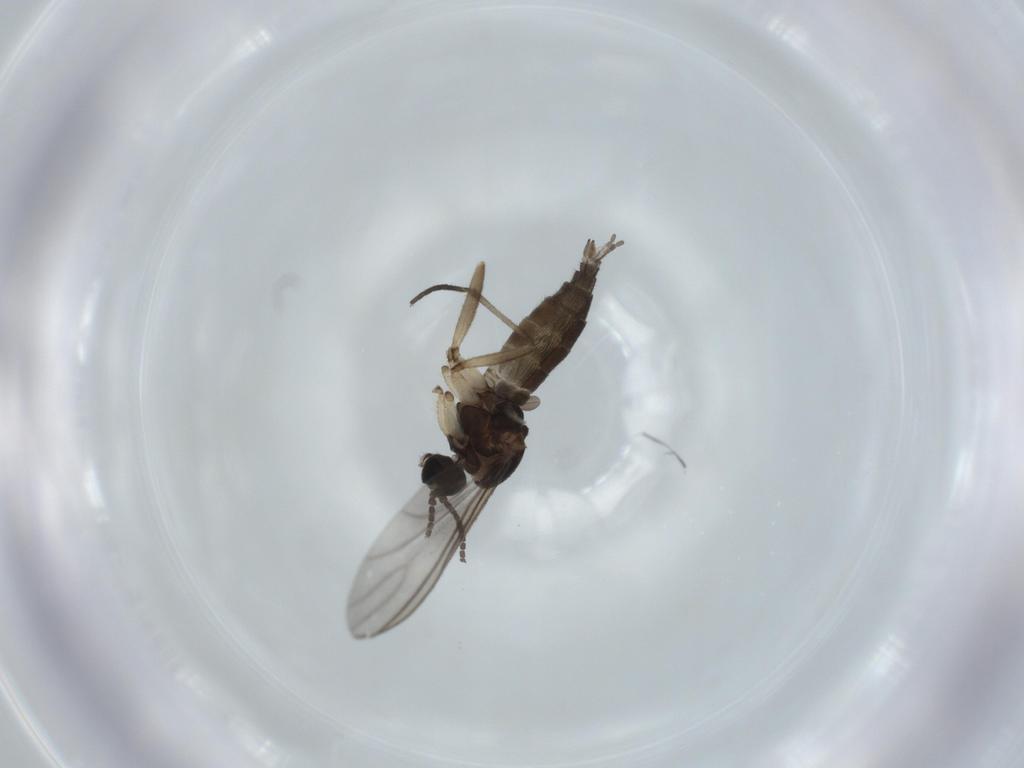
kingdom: Animalia
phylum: Arthropoda
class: Insecta
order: Diptera
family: Sciaridae
